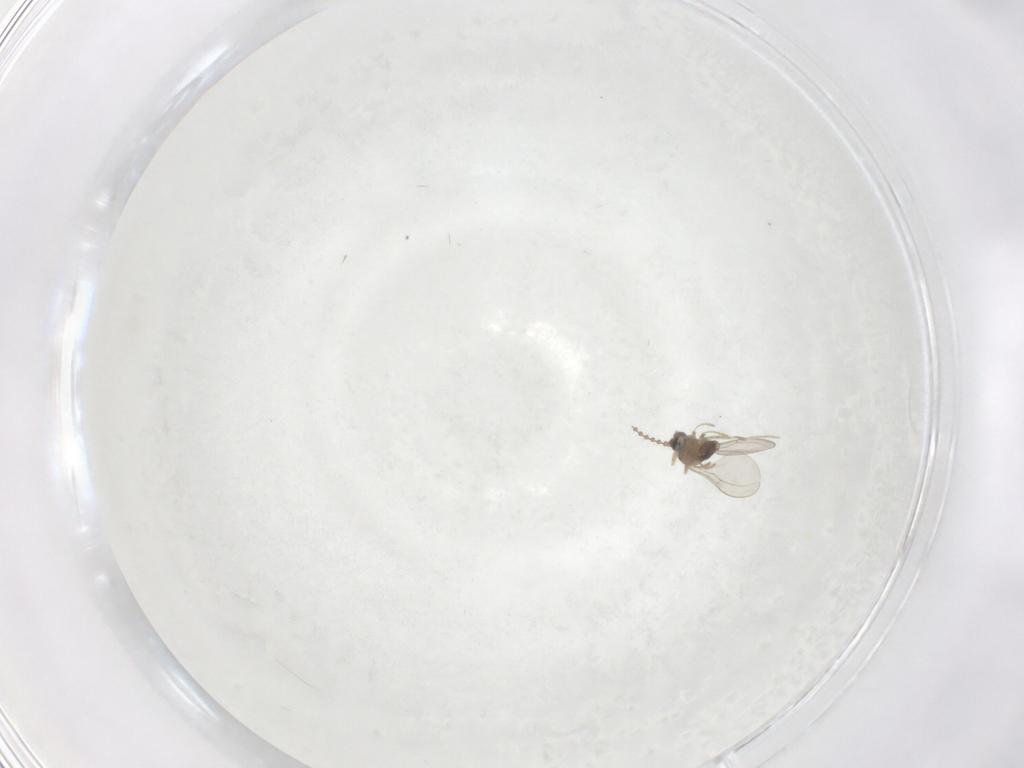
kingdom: Animalia
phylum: Arthropoda
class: Insecta
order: Diptera
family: Cecidomyiidae
